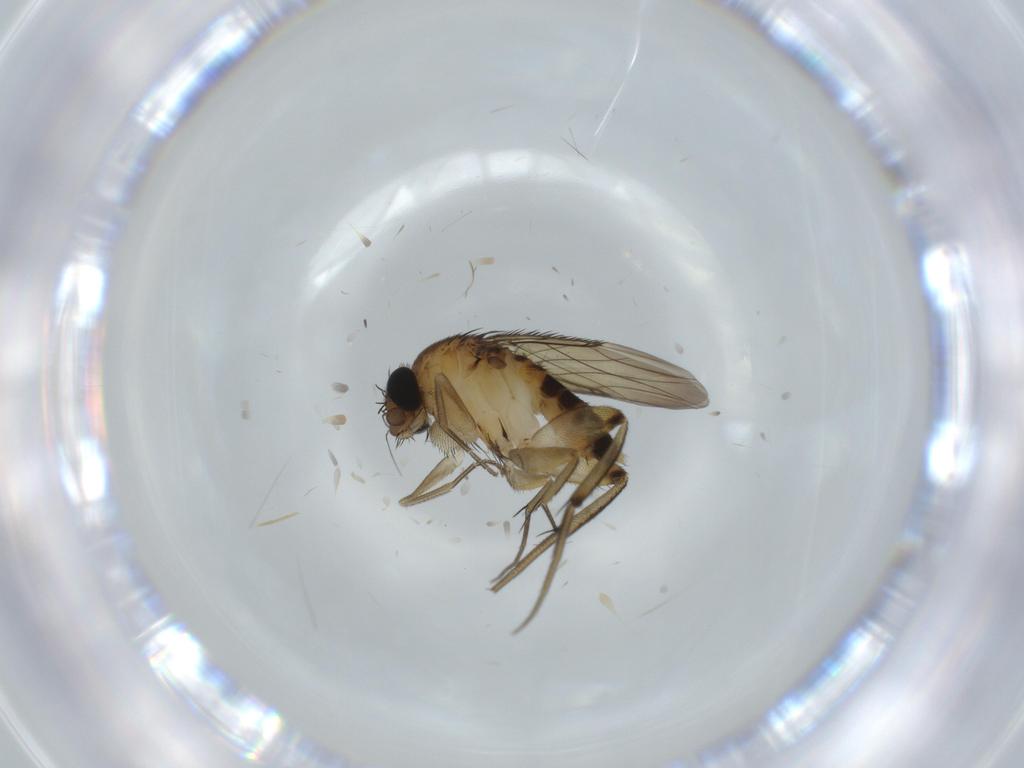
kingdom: Animalia
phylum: Arthropoda
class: Insecta
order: Diptera
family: Phoridae
